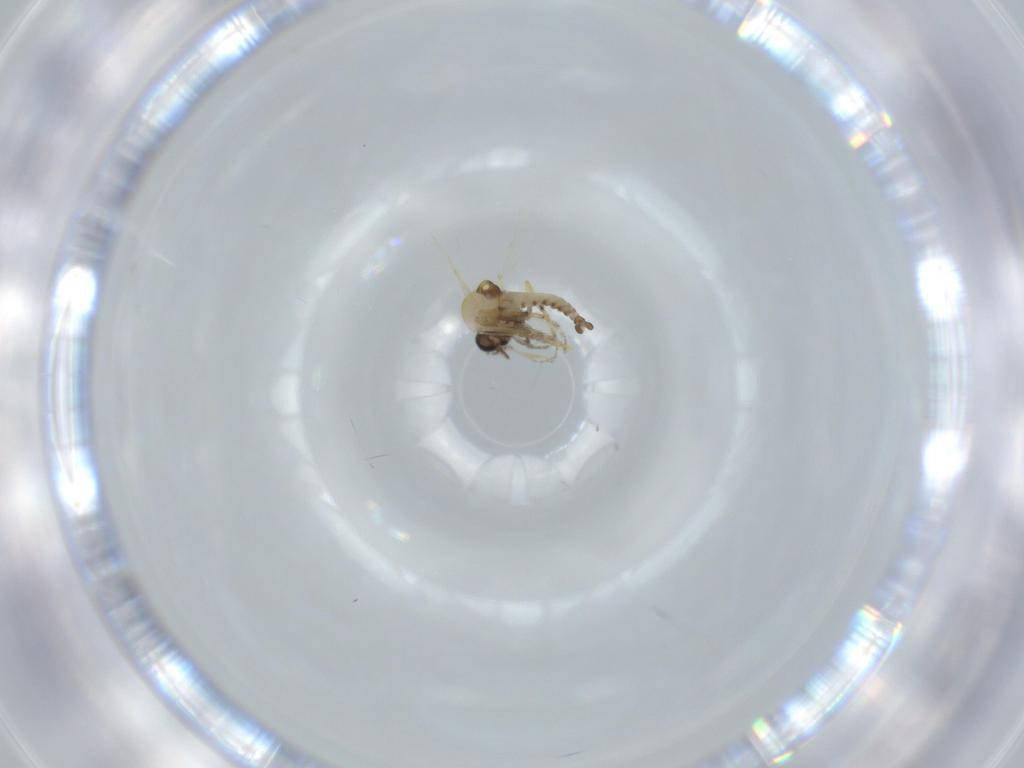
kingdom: Animalia
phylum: Arthropoda
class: Insecta
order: Diptera
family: Ceratopogonidae
